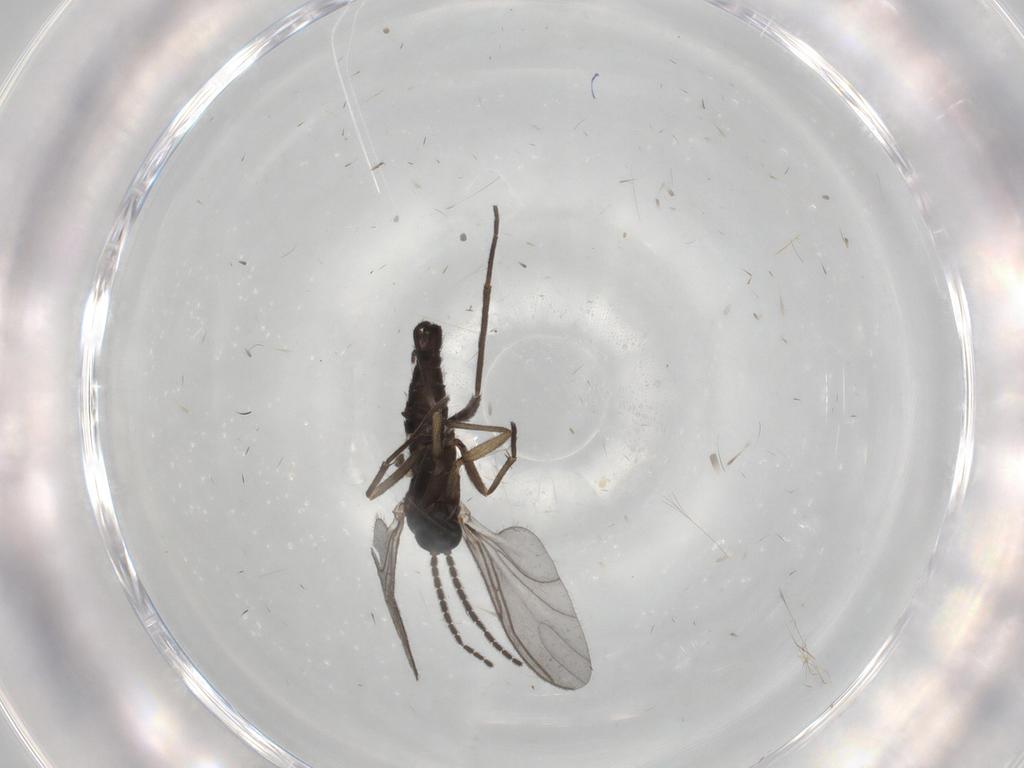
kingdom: Animalia
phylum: Arthropoda
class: Insecta
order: Diptera
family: Sciaridae
